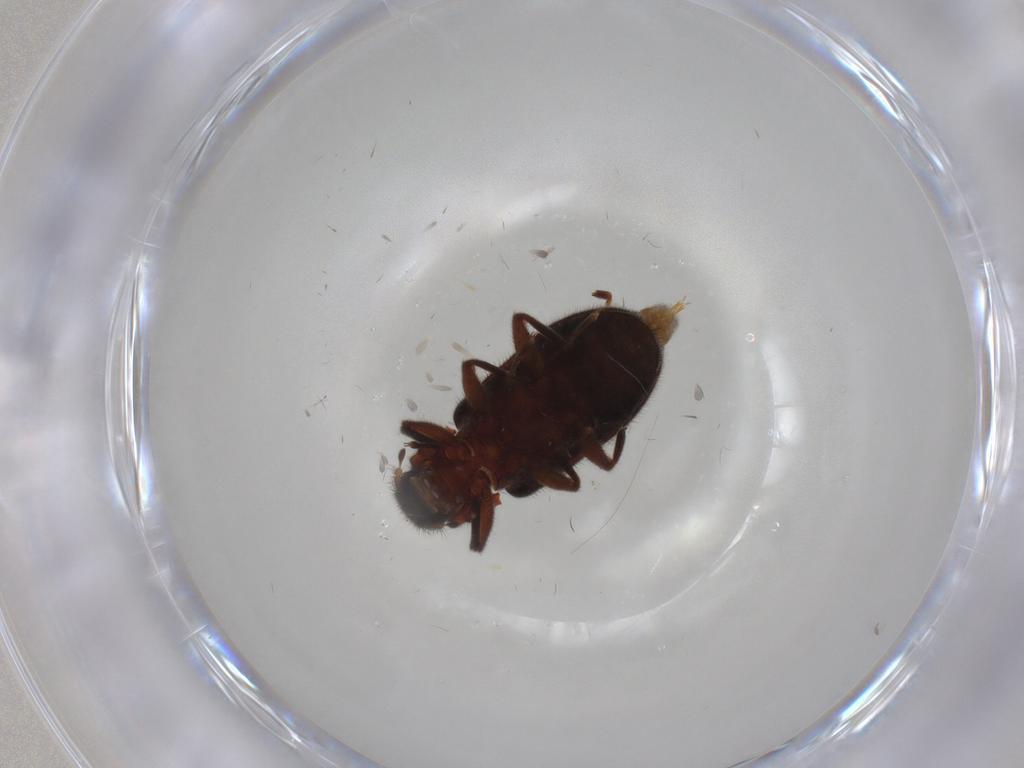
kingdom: Animalia
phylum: Arthropoda
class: Insecta
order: Coleoptera
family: Elmidae
